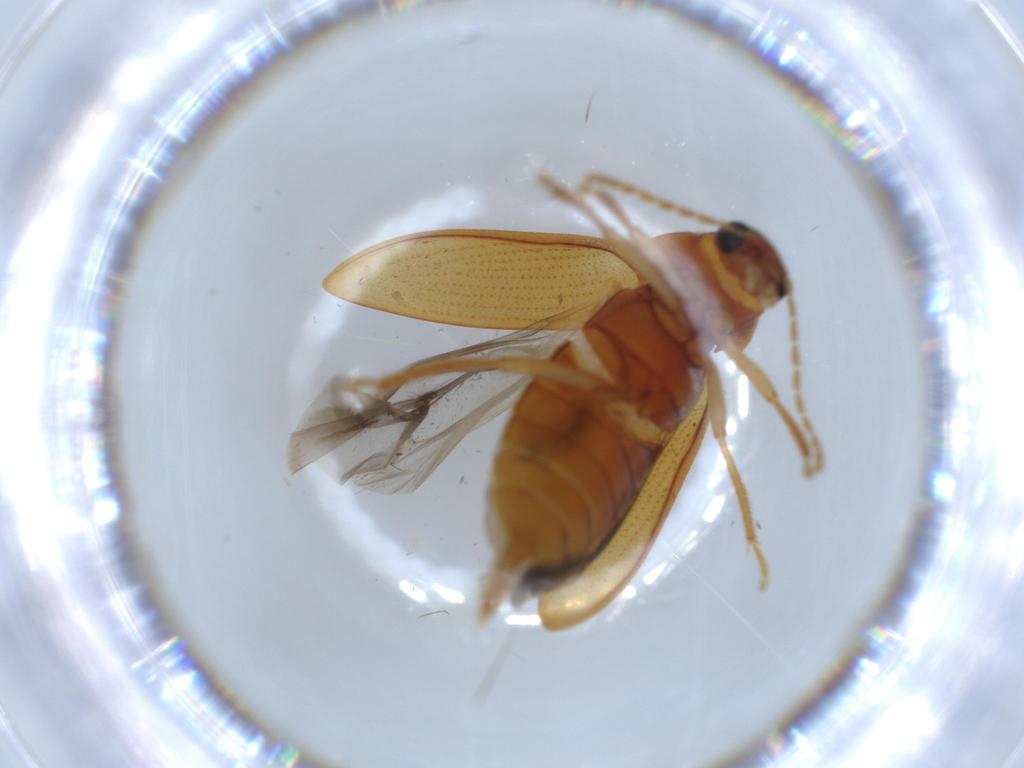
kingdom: Animalia
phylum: Arthropoda
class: Insecta
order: Coleoptera
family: Ptilodactylidae
